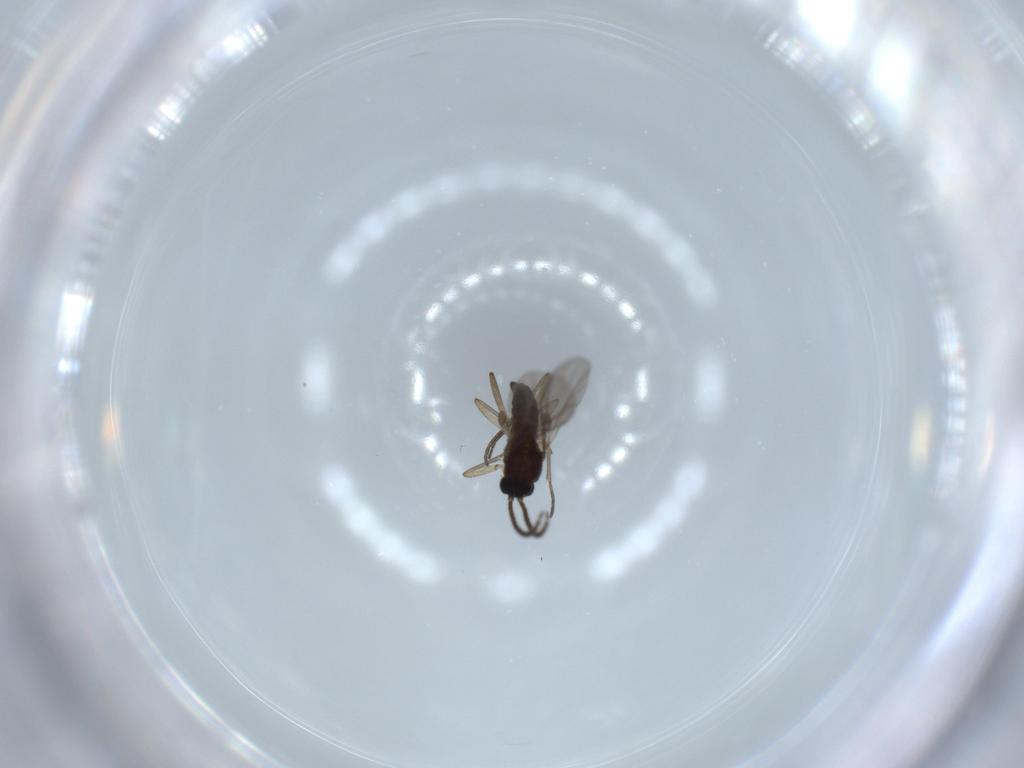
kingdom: Animalia
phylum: Arthropoda
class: Insecta
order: Diptera
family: Sciaridae
